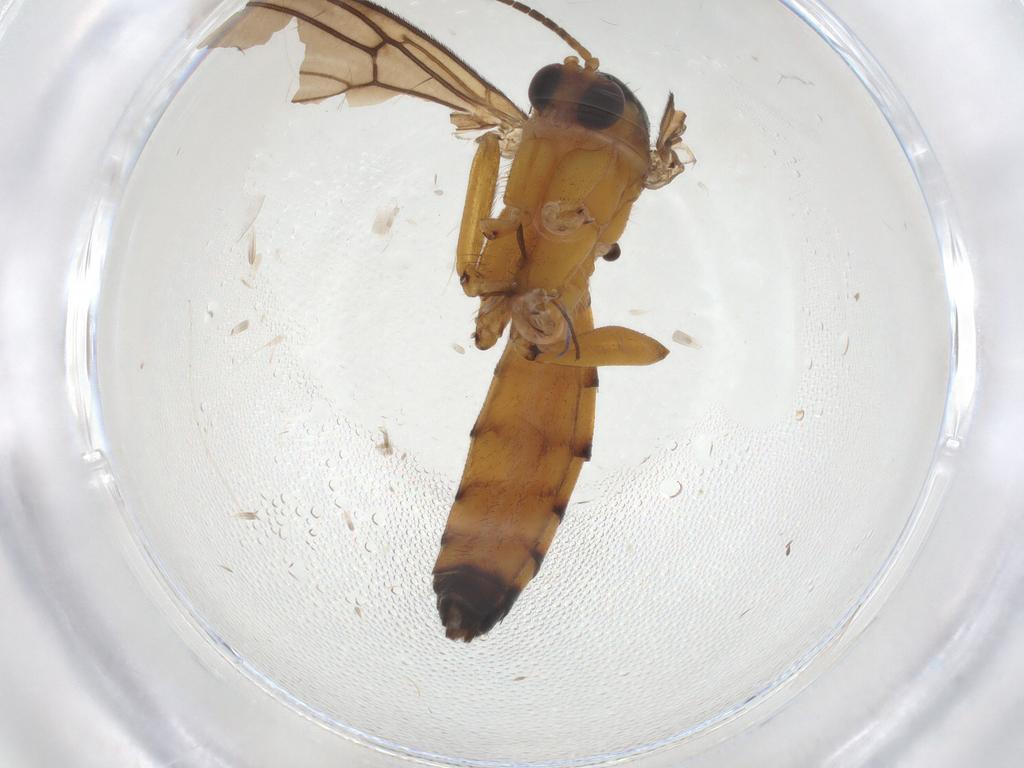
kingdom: Animalia
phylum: Arthropoda
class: Insecta
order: Diptera
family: Mycetophilidae
